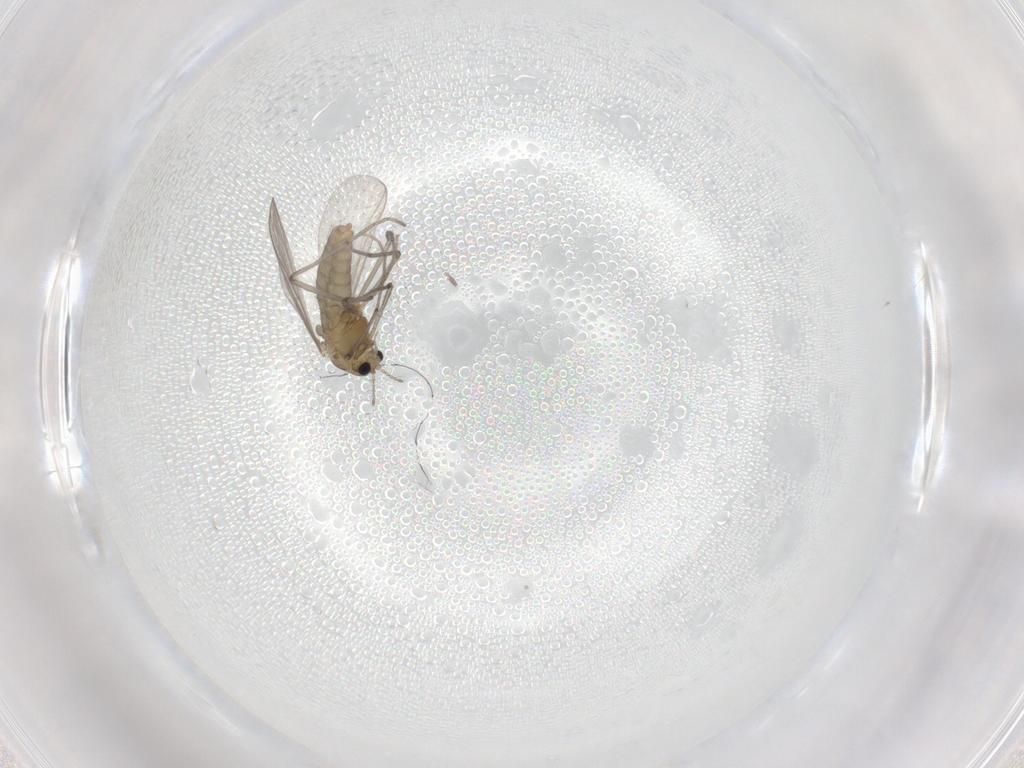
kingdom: Animalia
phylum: Arthropoda
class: Insecta
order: Diptera
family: Chironomidae
